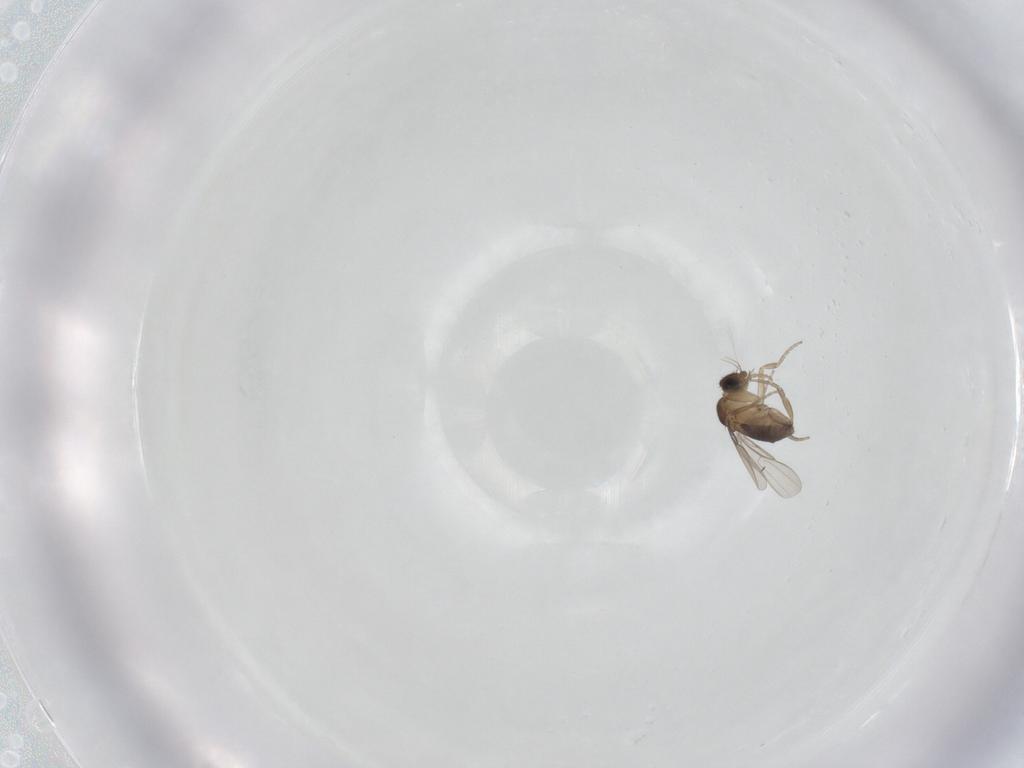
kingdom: Animalia
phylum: Arthropoda
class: Insecta
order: Diptera
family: Phoridae
